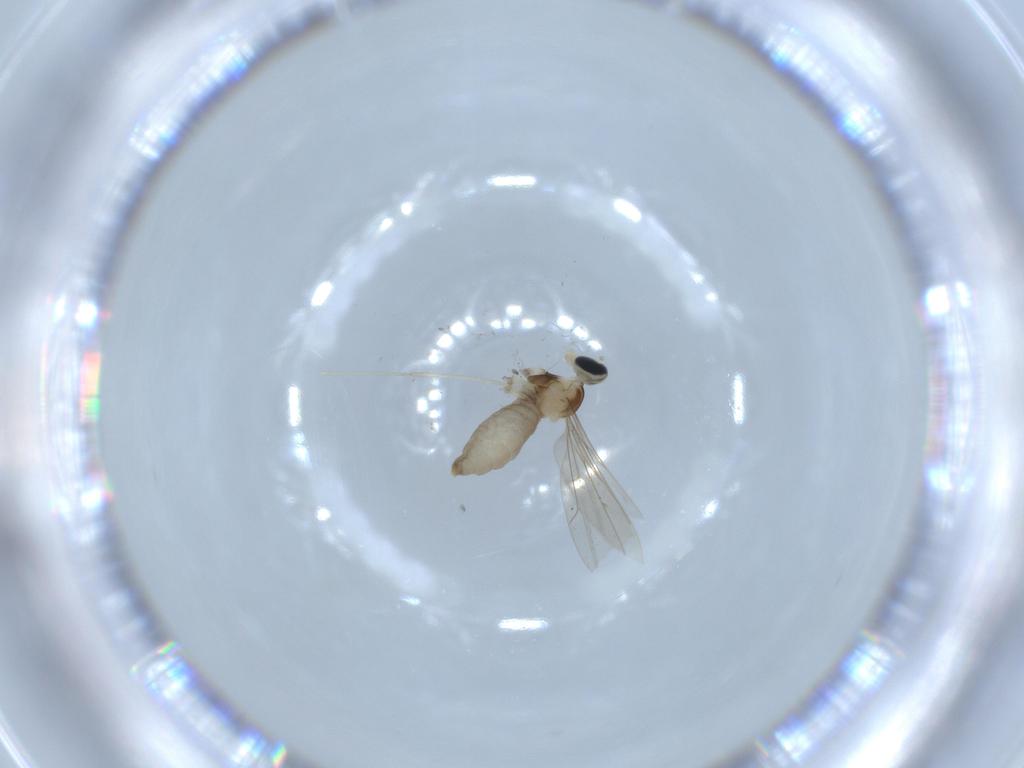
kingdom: Animalia
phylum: Arthropoda
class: Insecta
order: Diptera
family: Cecidomyiidae
